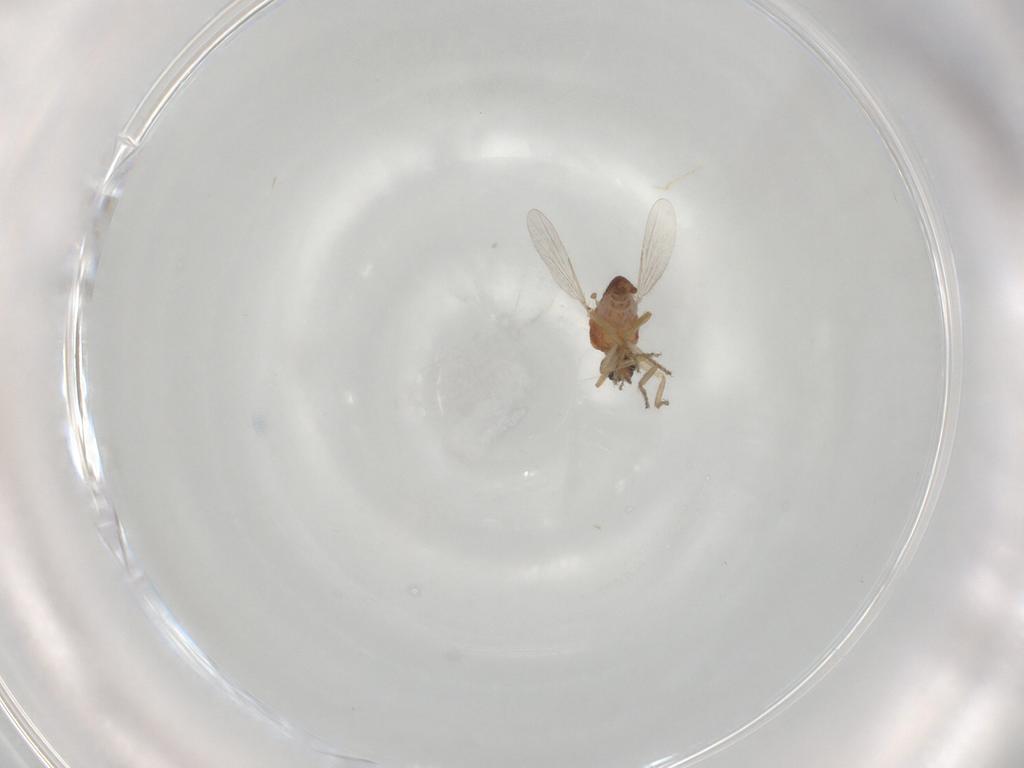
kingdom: Animalia
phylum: Arthropoda
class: Insecta
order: Diptera
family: Ceratopogonidae
